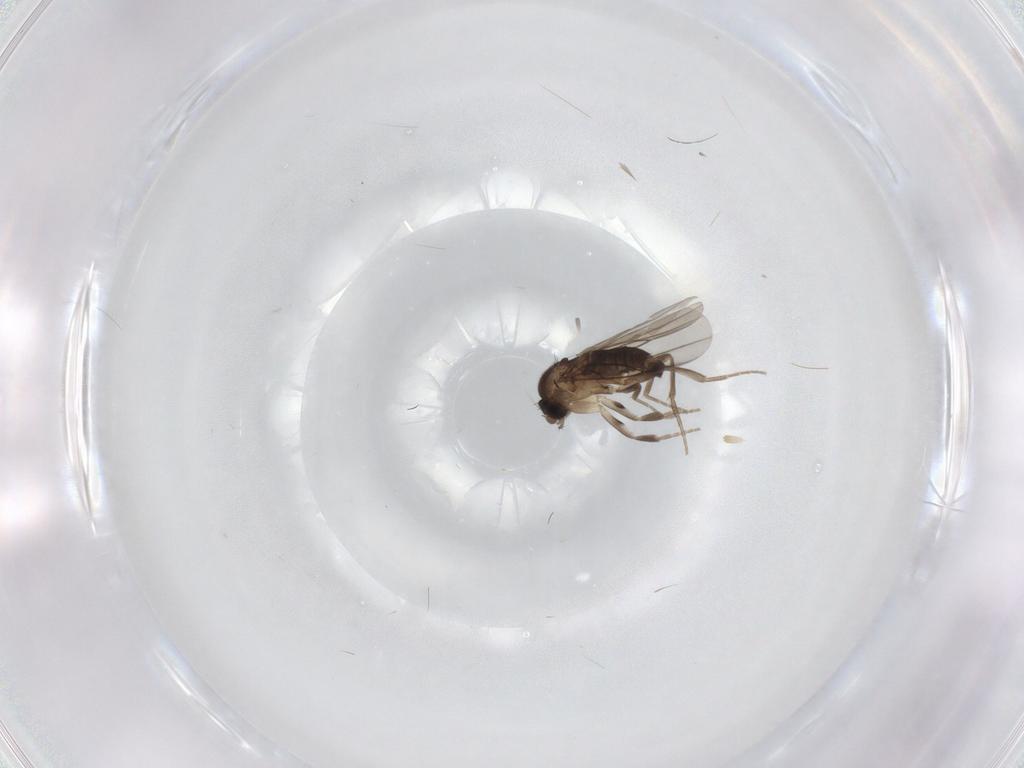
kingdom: Animalia
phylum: Arthropoda
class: Insecta
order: Diptera
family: Phoridae
